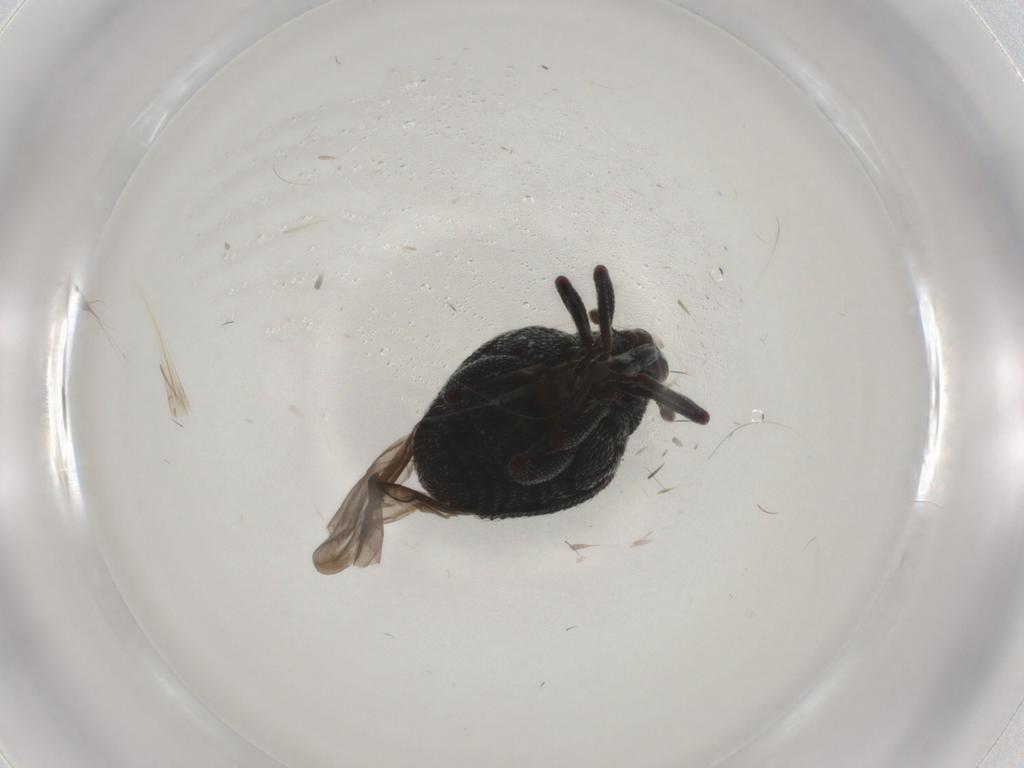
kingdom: Animalia
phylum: Arthropoda
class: Insecta
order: Coleoptera
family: Curculionidae
